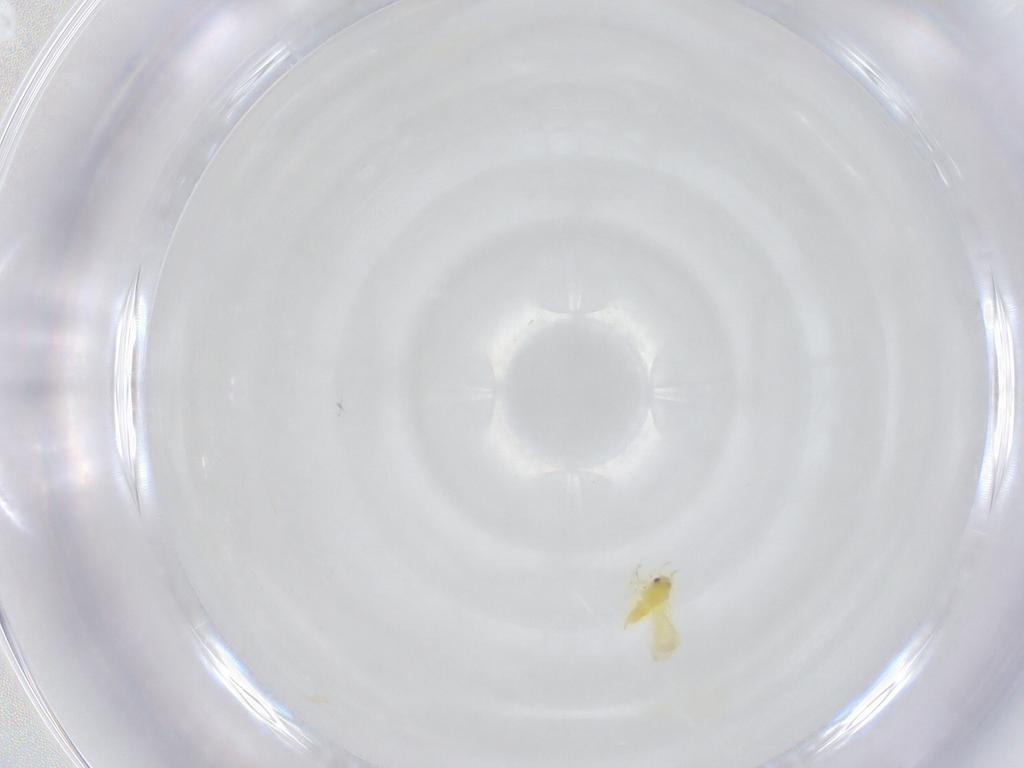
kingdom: Animalia
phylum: Arthropoda
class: Insecta
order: Hemiptera
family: Aleyrodidae
